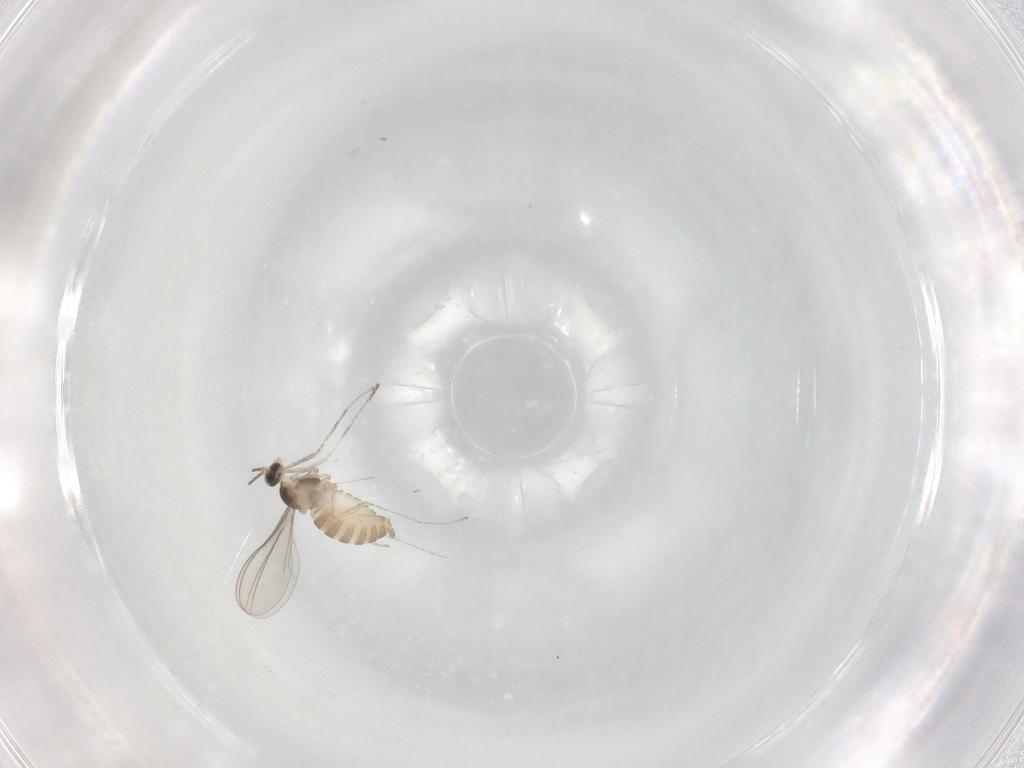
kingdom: Animalia
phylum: Arthropoda
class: Insecta
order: Diptera
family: Cecidomyiidae
